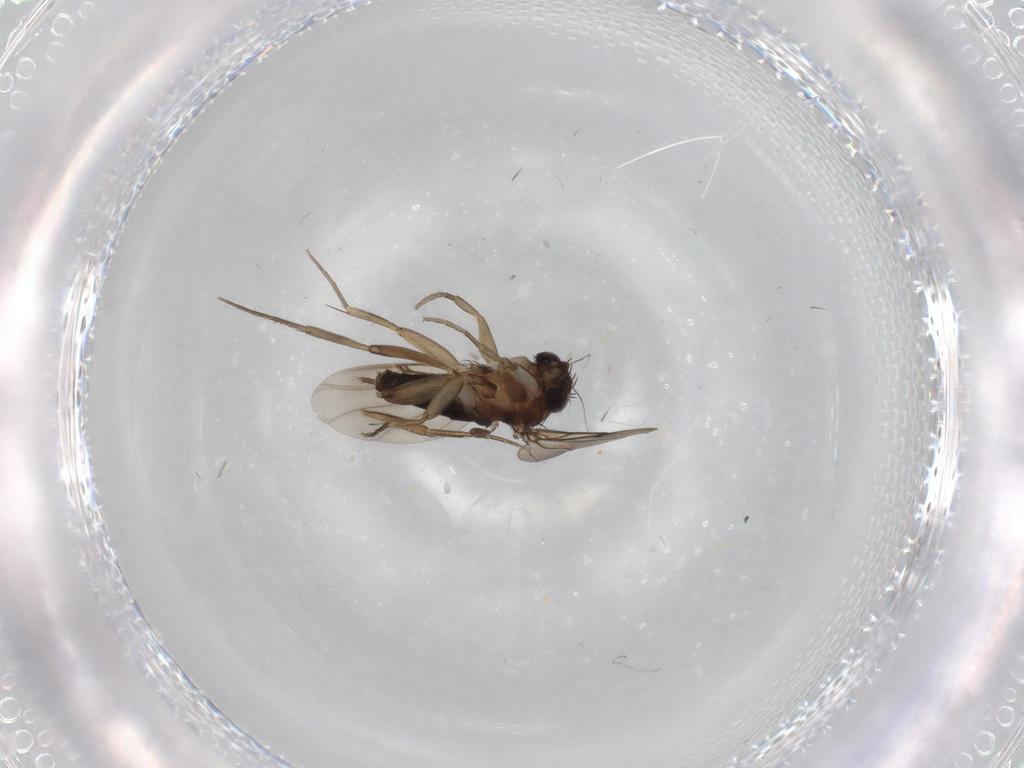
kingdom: Animalia
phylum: Arthropoda
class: Insecta
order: Diptera
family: Phoridae
